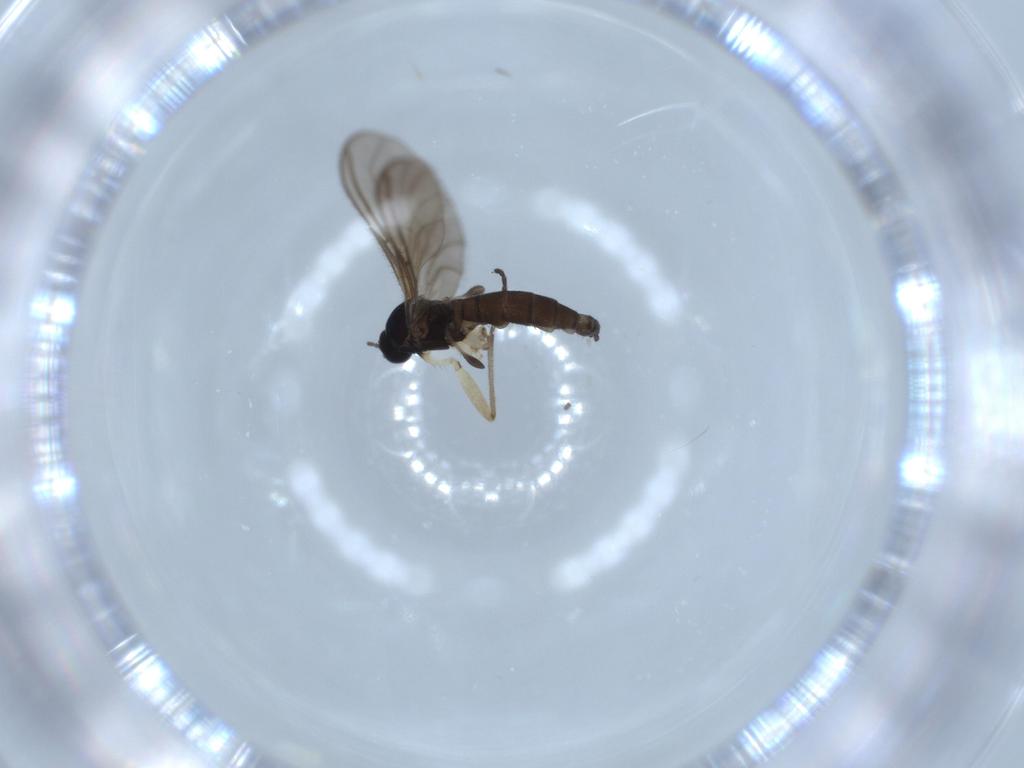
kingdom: Animalia
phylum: Arthropoda
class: Insecta
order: Diptera
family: Sciaridae
